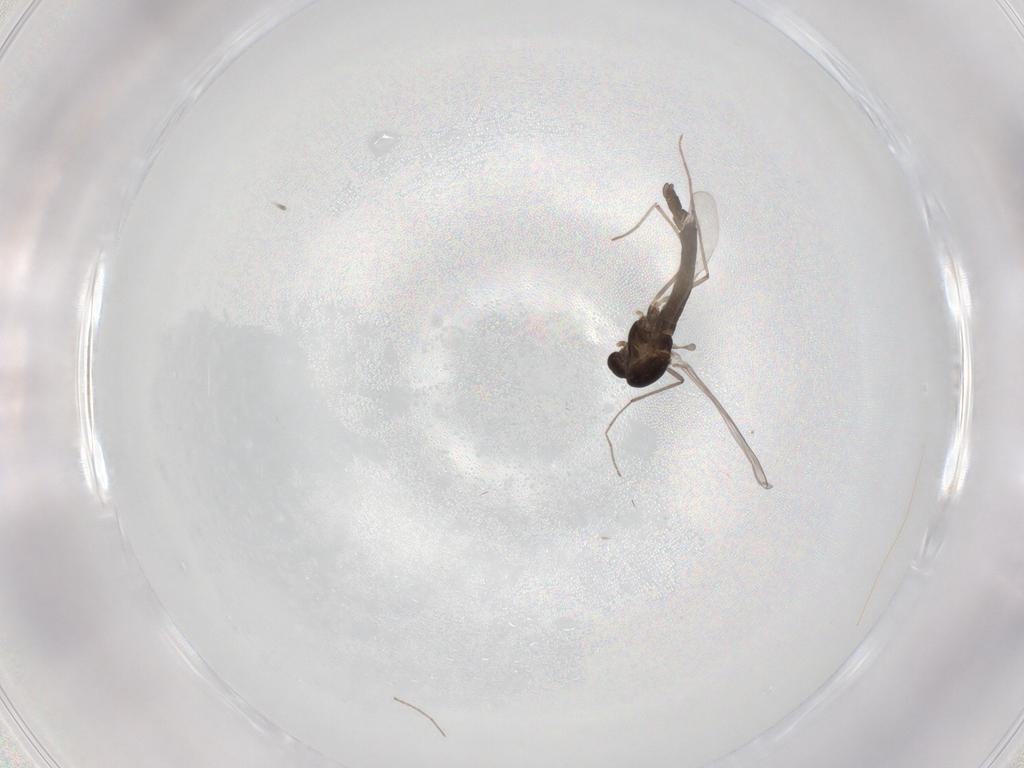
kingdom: Animalia
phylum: Arthropoda
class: Insecta
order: Diptera
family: Chironomidae
